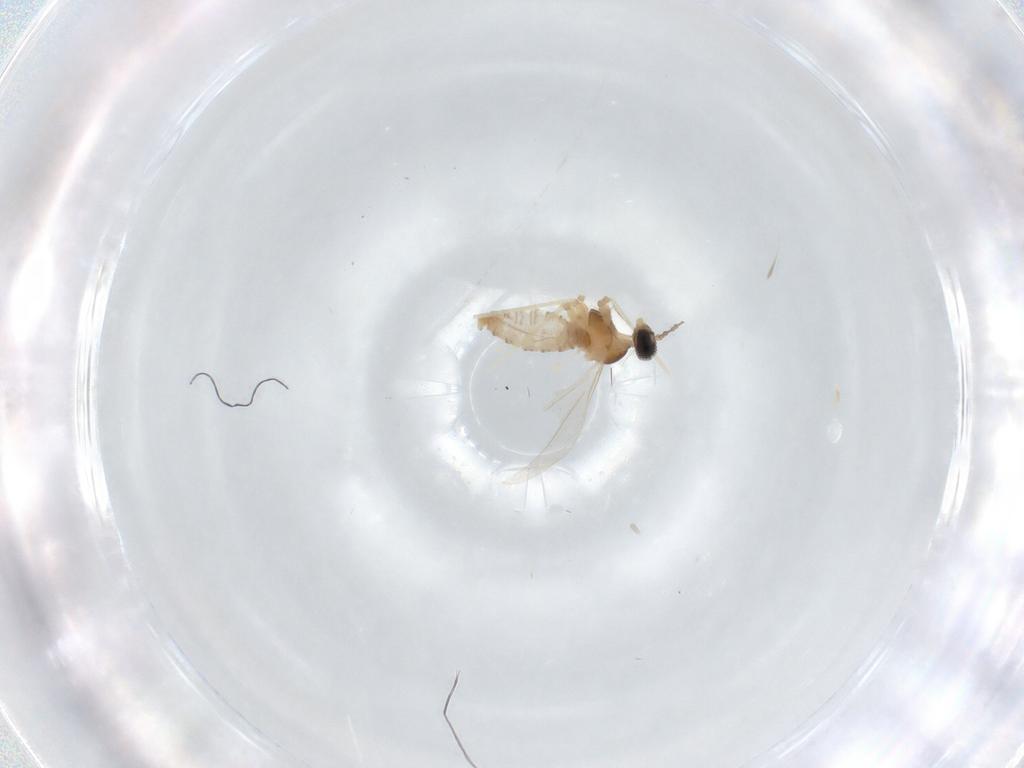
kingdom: Animalia
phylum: Arthropoda
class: Insecta
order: Diptera
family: Cecidomyiidae
